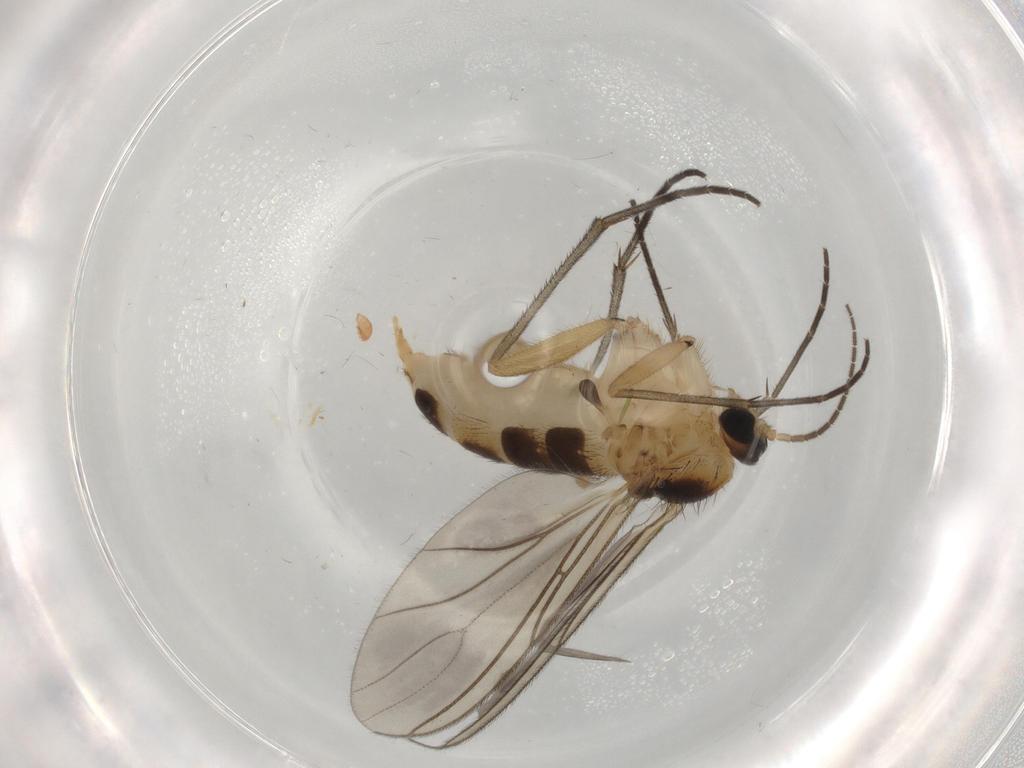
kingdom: Animalia
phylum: Arthropoda
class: Insecta
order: Diptera
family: Sciaridae
